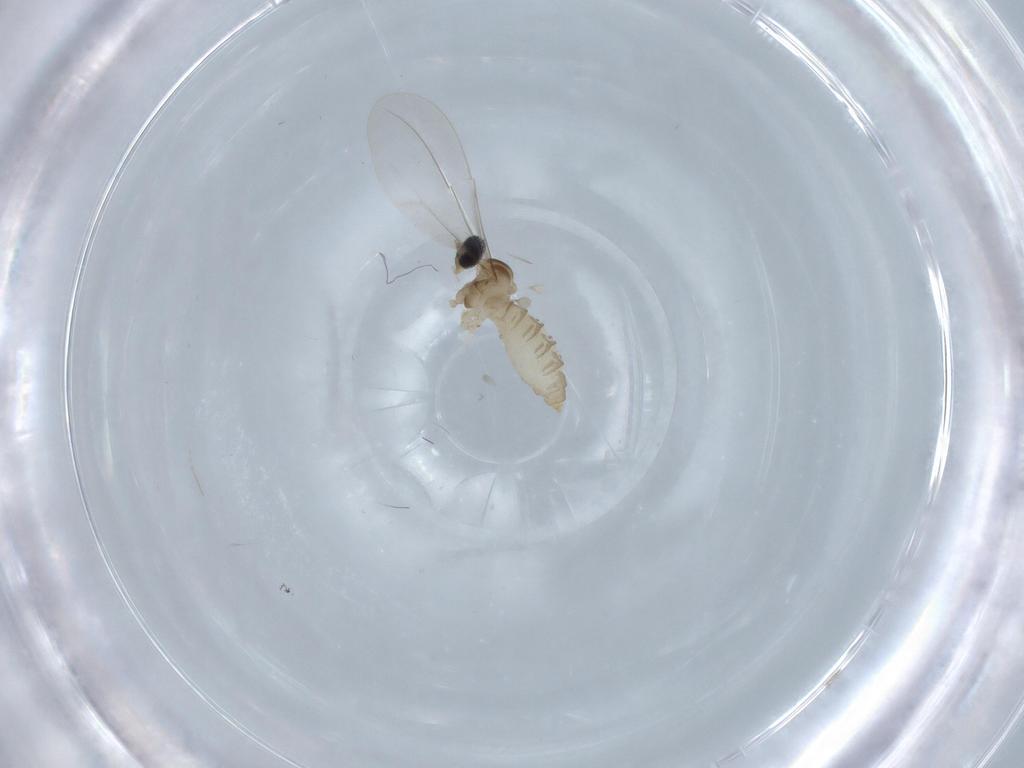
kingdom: Animalia
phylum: Arthropoda
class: Insecta
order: Diptera
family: Cecidomyiidae
